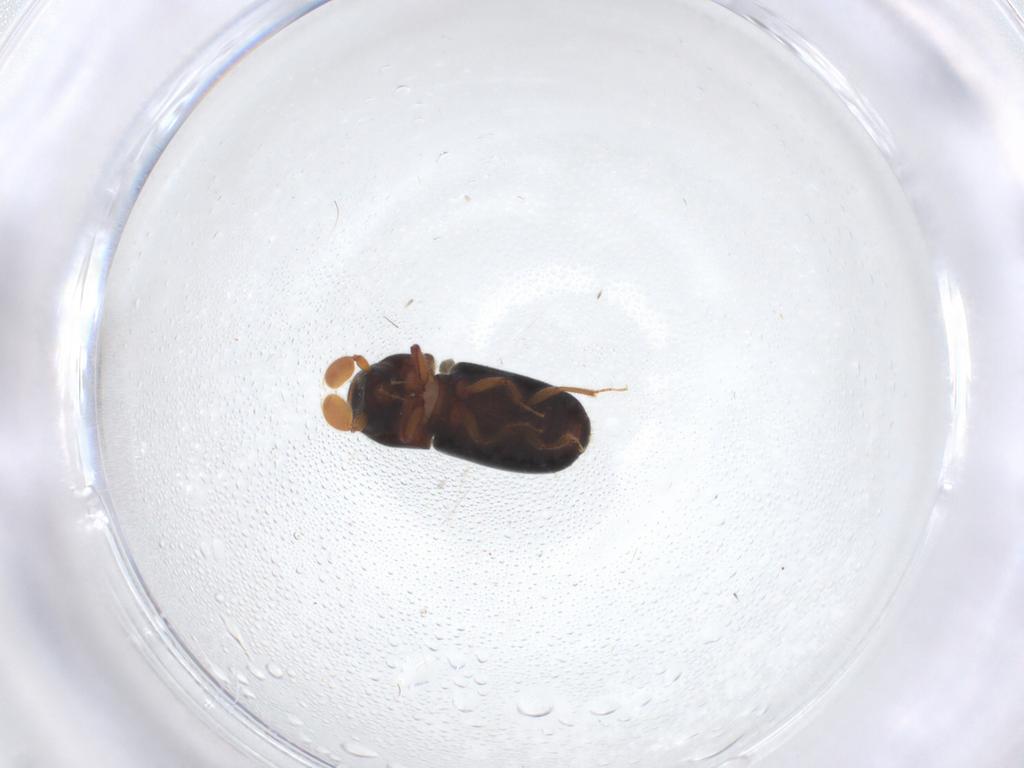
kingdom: Animalia
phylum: Arthropoda
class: Insecta
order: Coleoptera
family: Curculionidae
